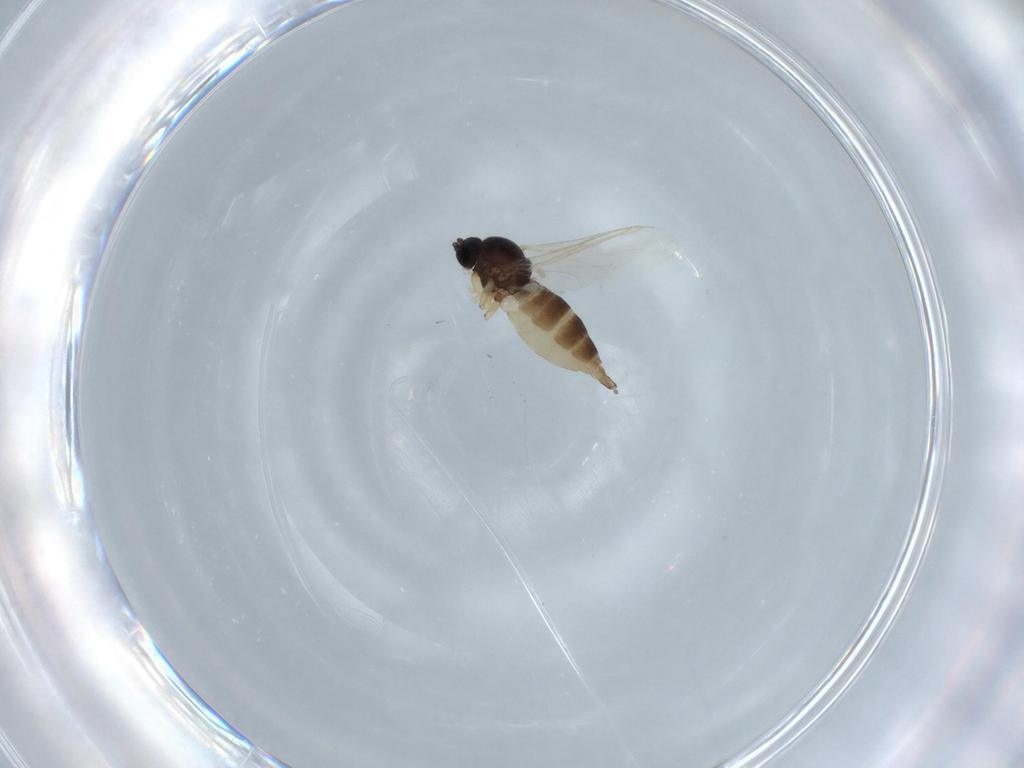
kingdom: Animalia
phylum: Arthropoda
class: Insecta
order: Diptera
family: Sciaridae
